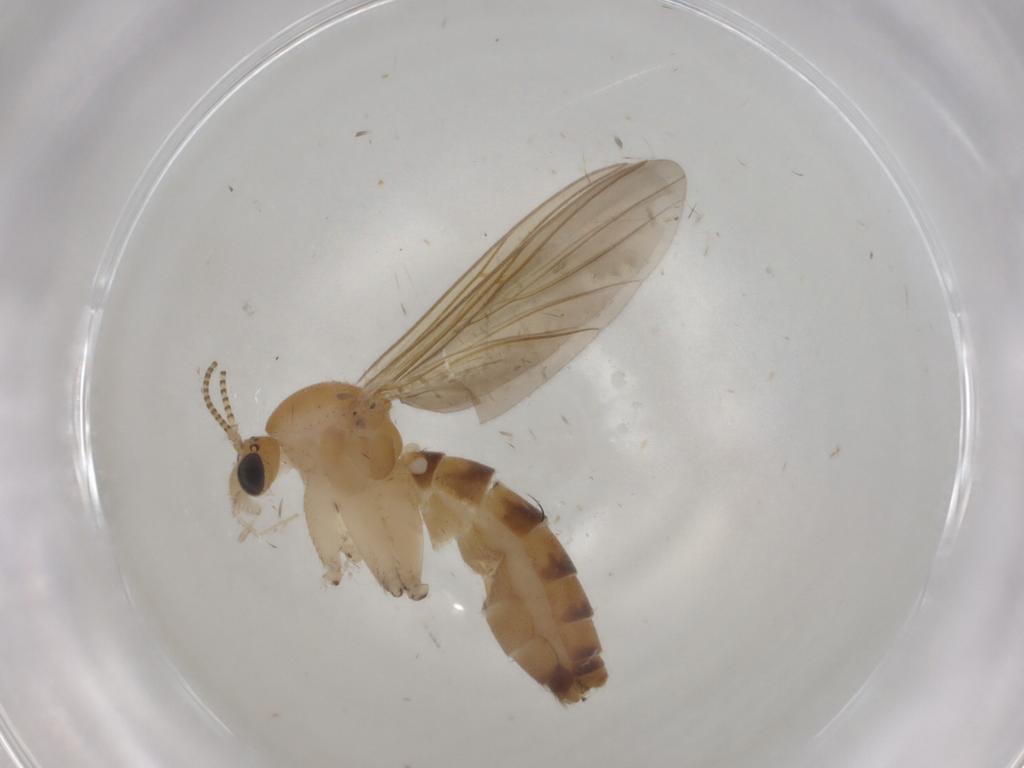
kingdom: Animalia
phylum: Arthropoda
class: Insecta
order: Diptera
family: Mycetophilidae
